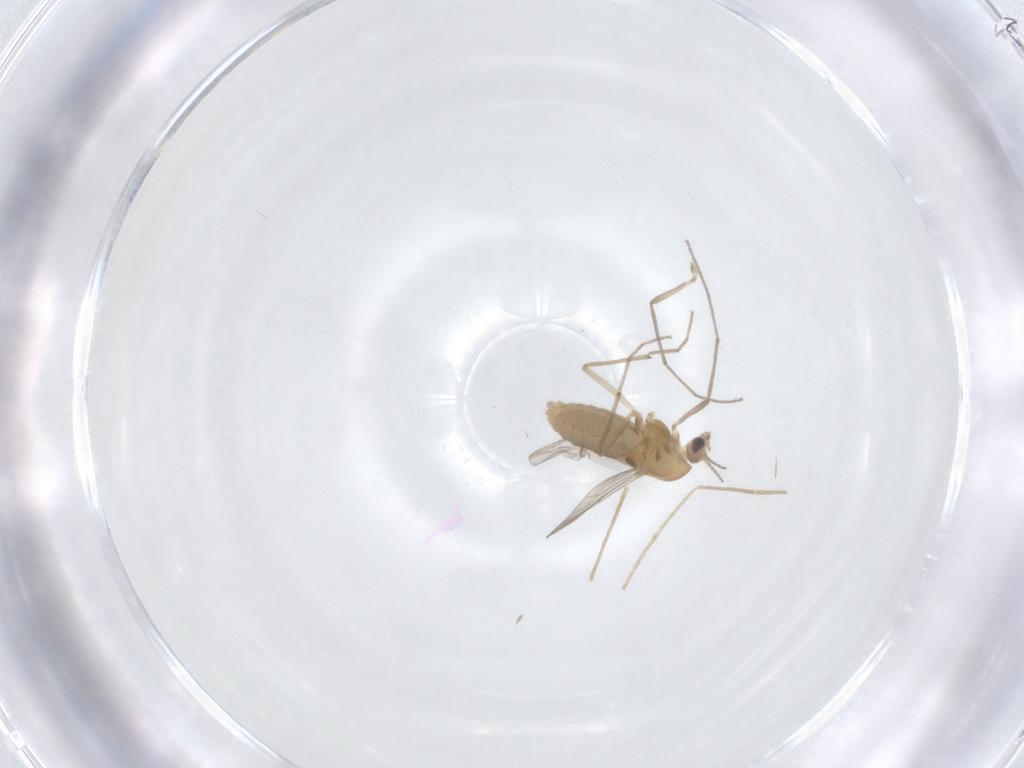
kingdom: Animalia
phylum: Arthropoda
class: Insecta
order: Diptera
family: Chironomidae
